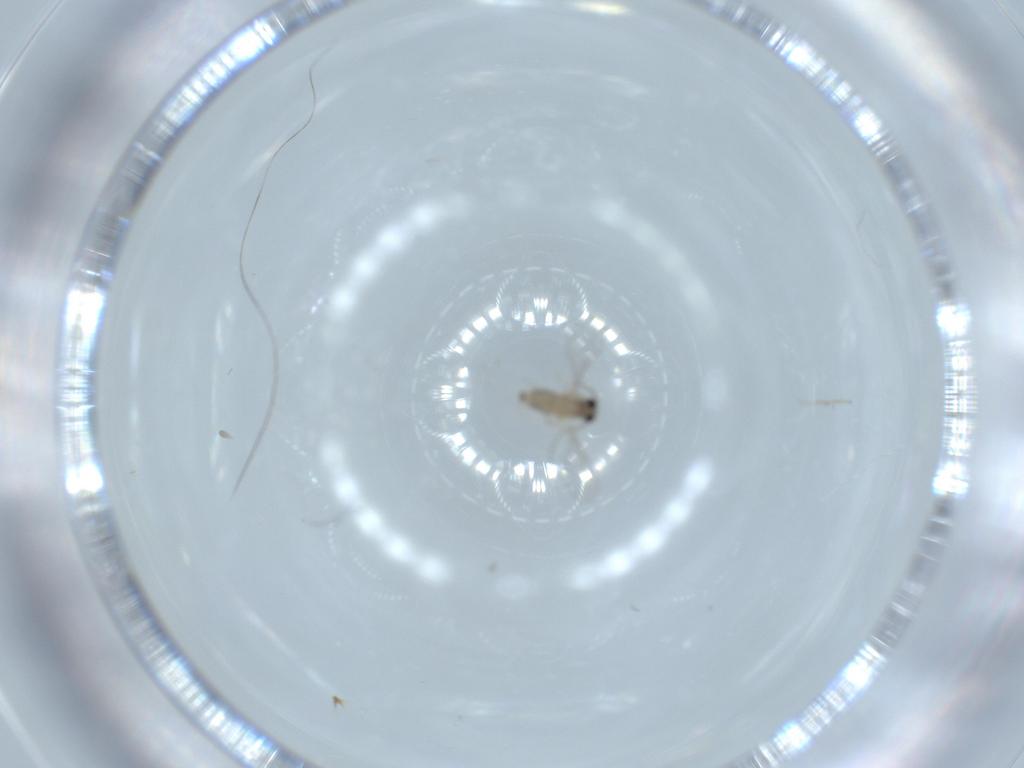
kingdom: Animalia
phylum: Arthropoda
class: Insecta
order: Diptera
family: Cecidomyiidae
